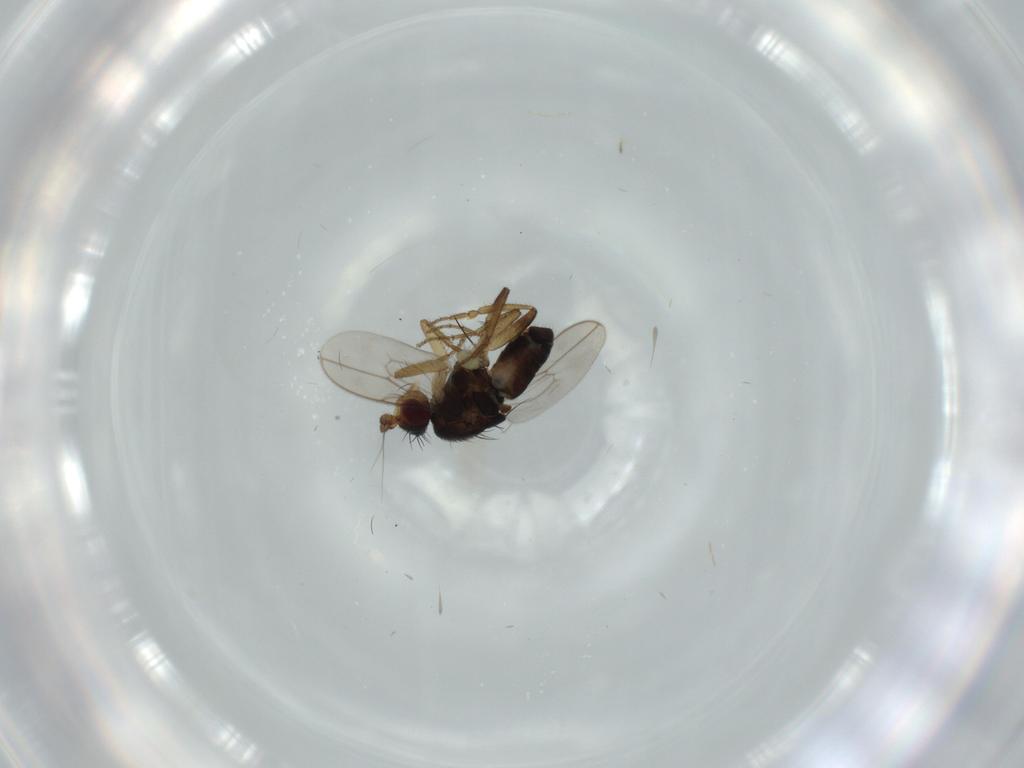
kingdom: Animalia
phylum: Arthropoda
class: Insecta
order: Diptera
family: Sphaeroceridae
